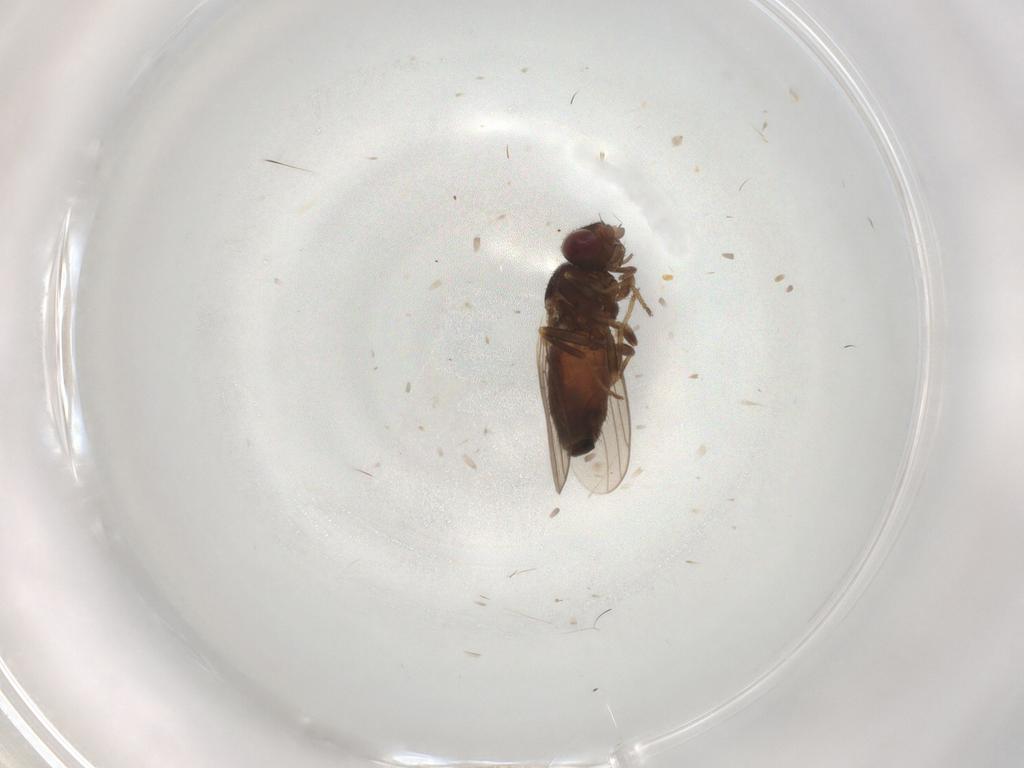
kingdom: Animalia
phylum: Arthropoda
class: Insecta
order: Diptera
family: Chloropidae
